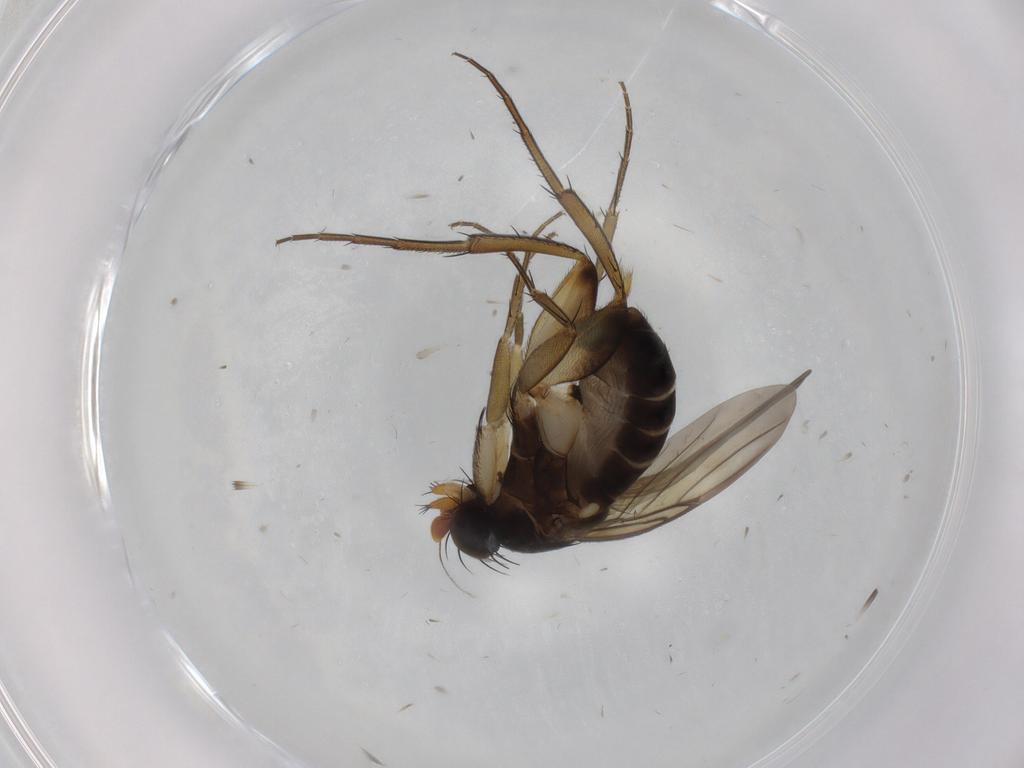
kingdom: Animalia
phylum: Arthropoda
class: Insecta
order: Diptera
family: Phoridae
